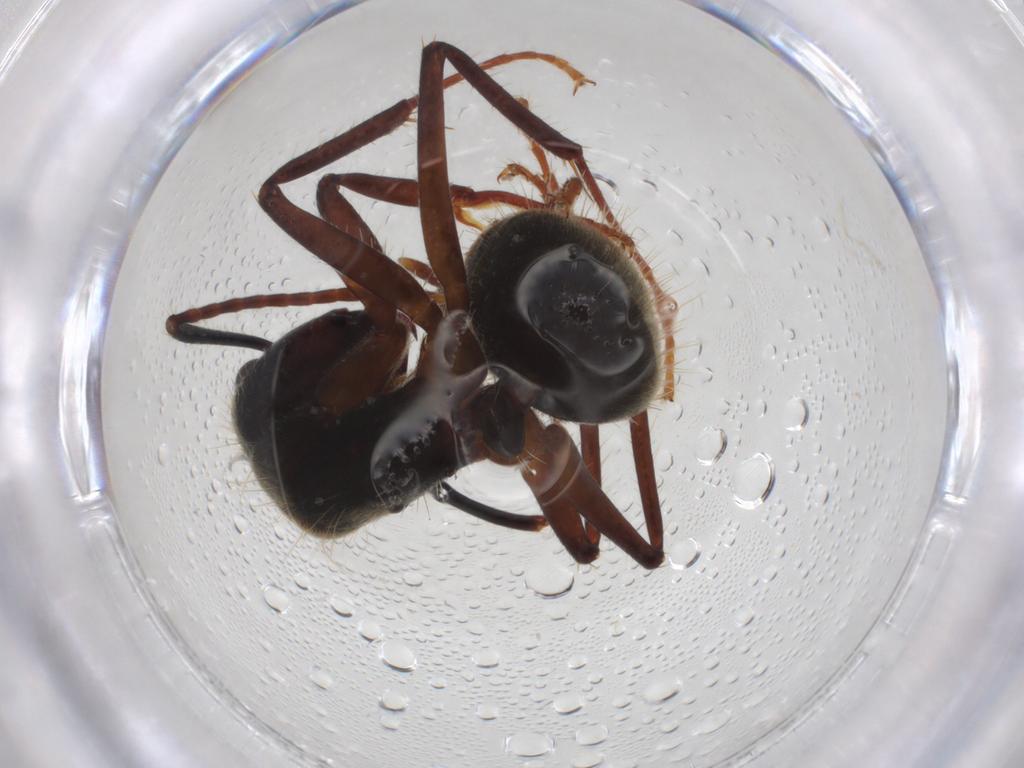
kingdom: Animalia
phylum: Arthropoda
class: Insecta
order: Hymenoptera
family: Formicidae
